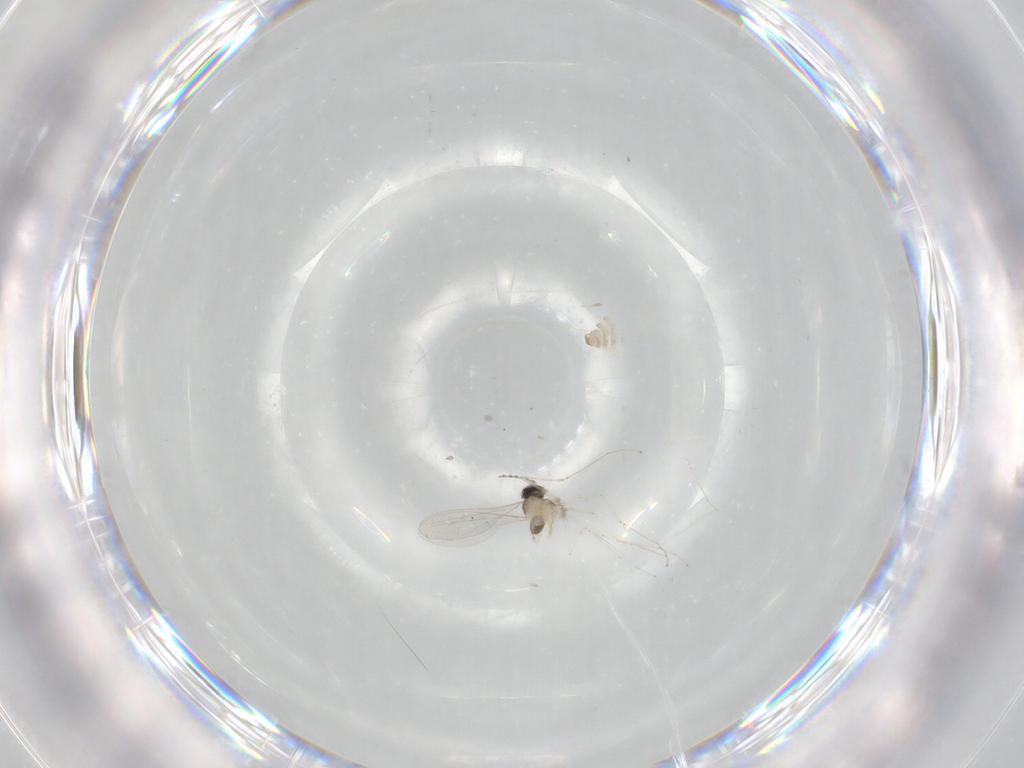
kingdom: Animalia
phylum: Arthropoda
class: Insecta
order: Diptera
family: Cecidomyiidae
